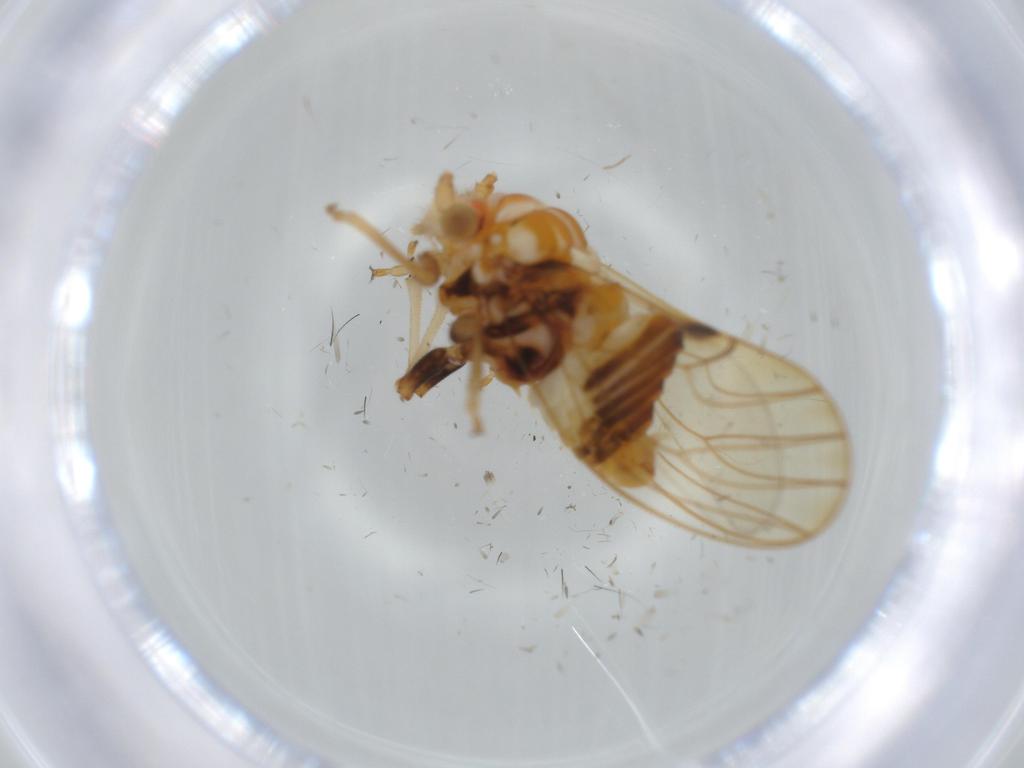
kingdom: Animalia
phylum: Arthropoda
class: Insecta
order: Hemiptera
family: Psyllidae
